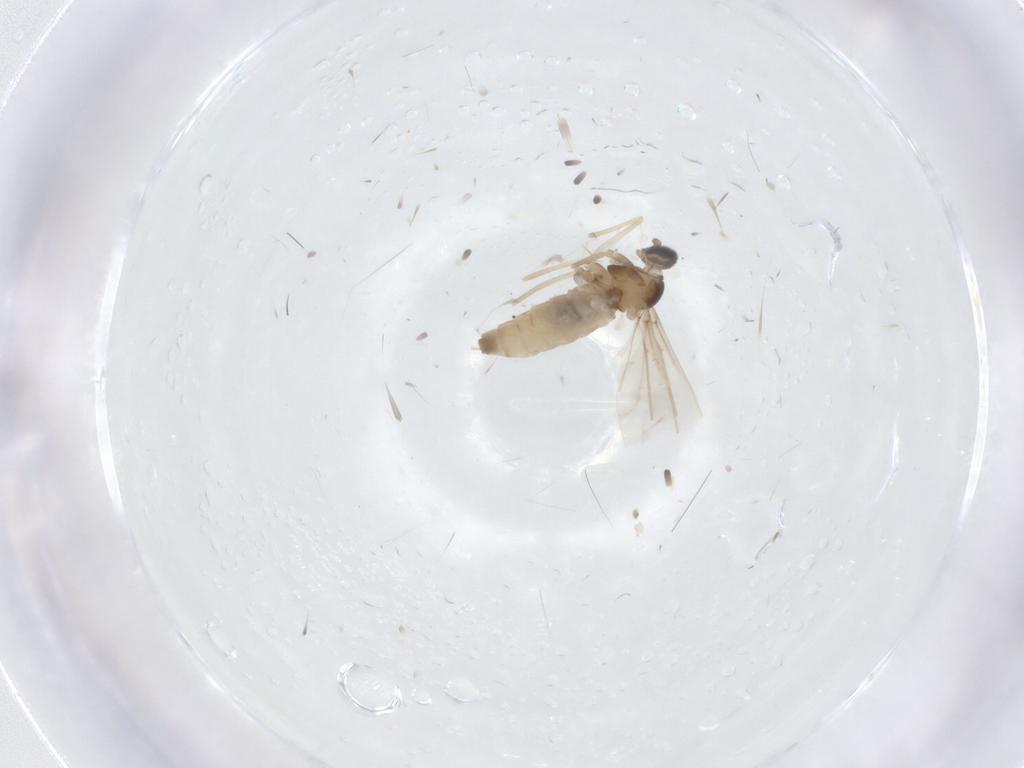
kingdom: Animalia
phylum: Arthropoda
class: Insecta
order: Diptera
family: Cecidomyiidae
